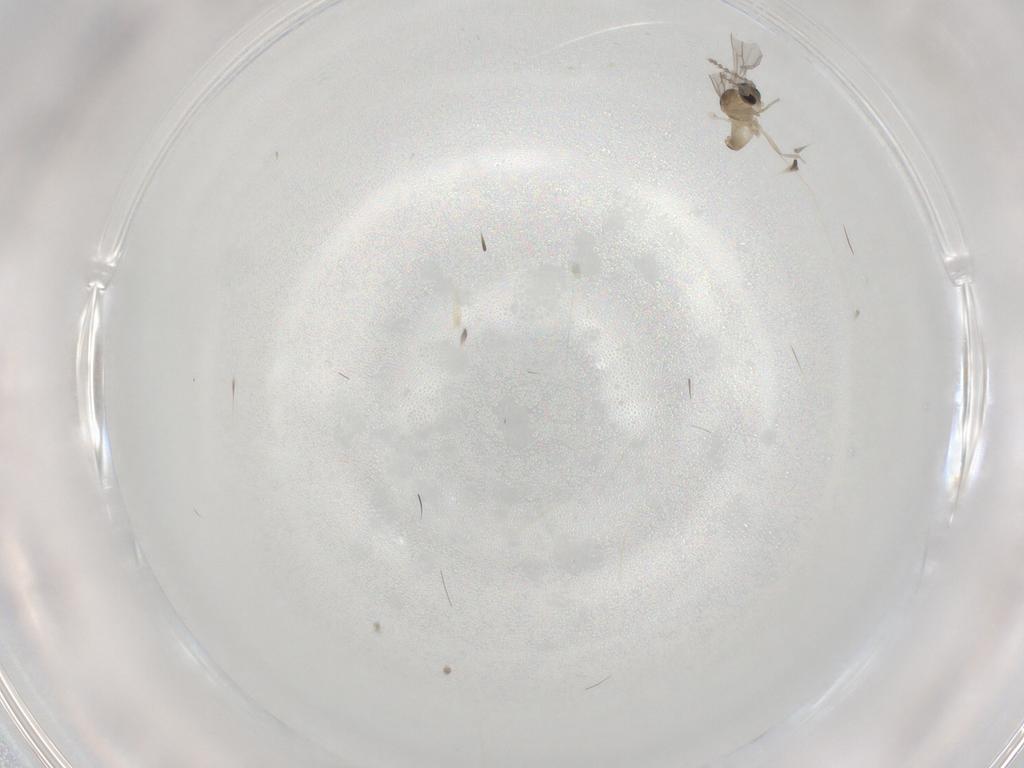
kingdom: Animalia
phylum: Arthropoda
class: Insecta
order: Diptera
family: Cecidomyiidae
